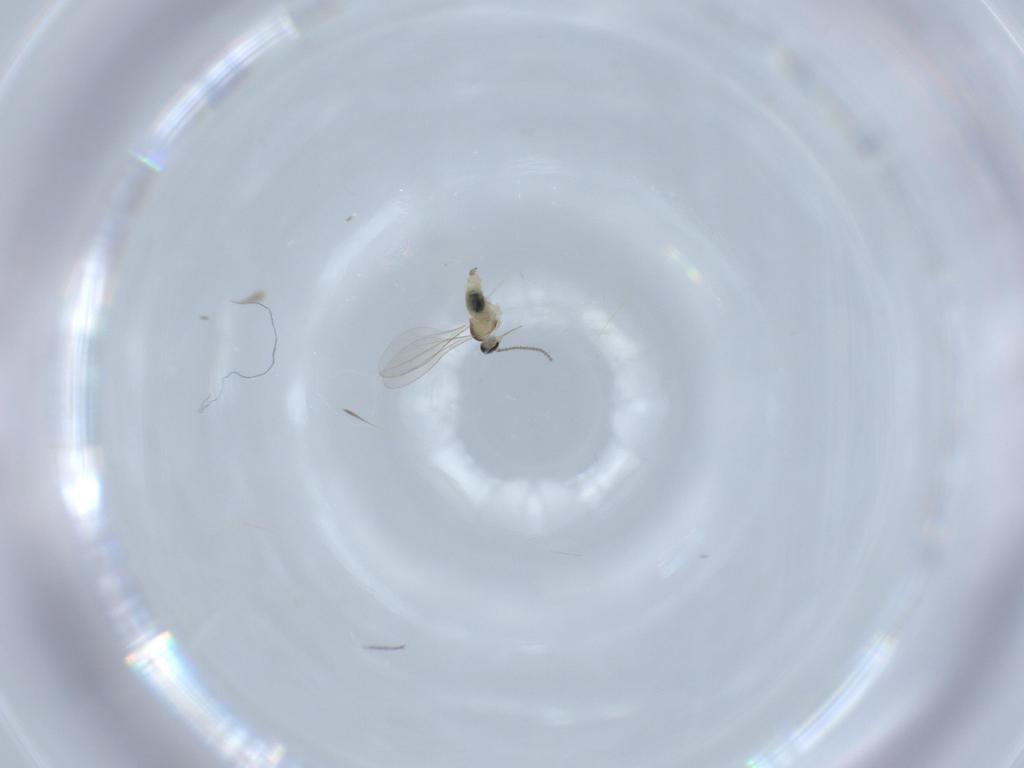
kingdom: Animalia
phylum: Arthropoda
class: Insecta
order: Diptera
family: Cecidomyiidae
